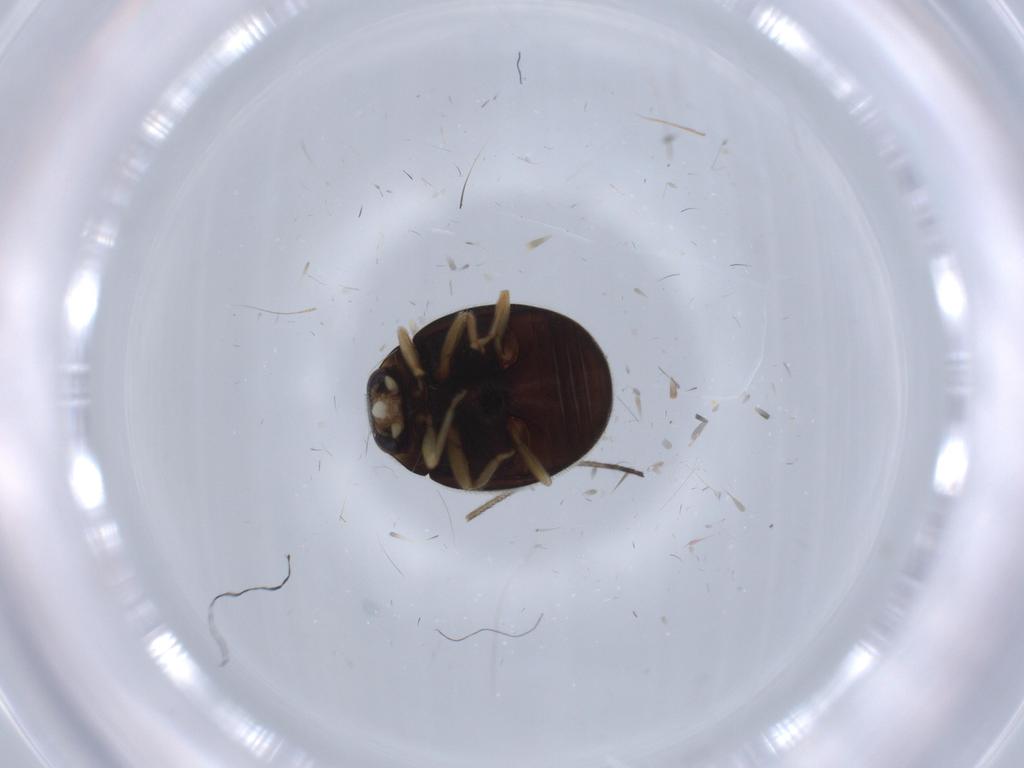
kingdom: Animalia
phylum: Arthropoda
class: Insecta
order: Coleoptera
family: Coccinellidae
